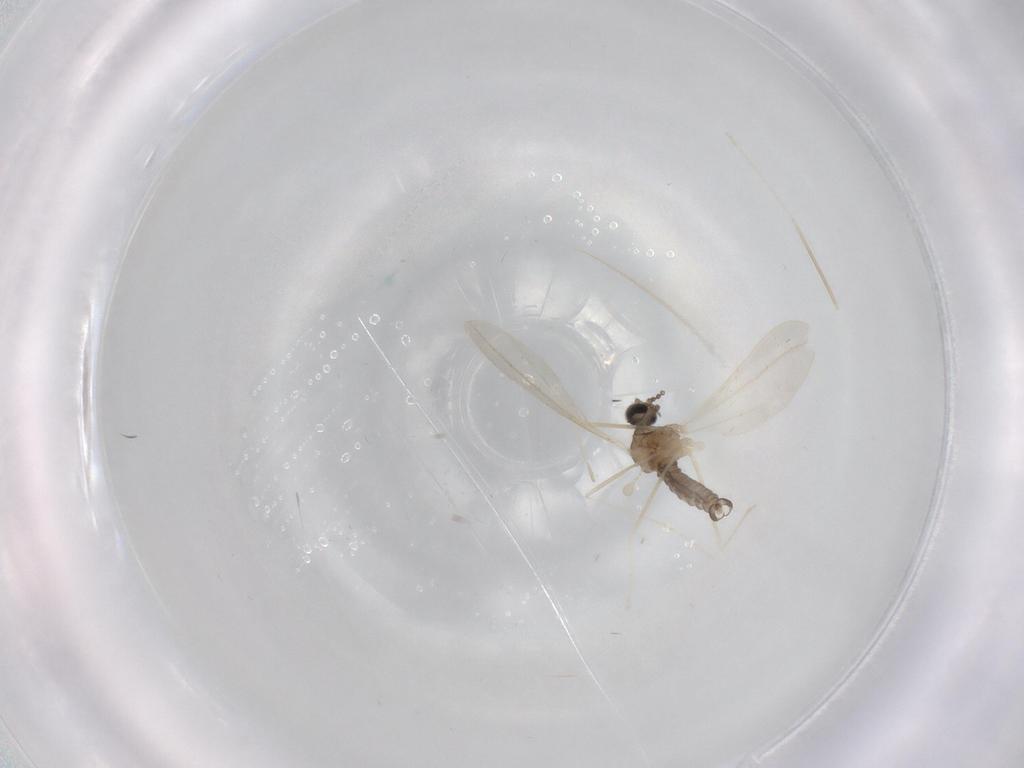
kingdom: Animalia
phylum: Arthropoda
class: Insecta
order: Diptera
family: Cecidomyiidae
